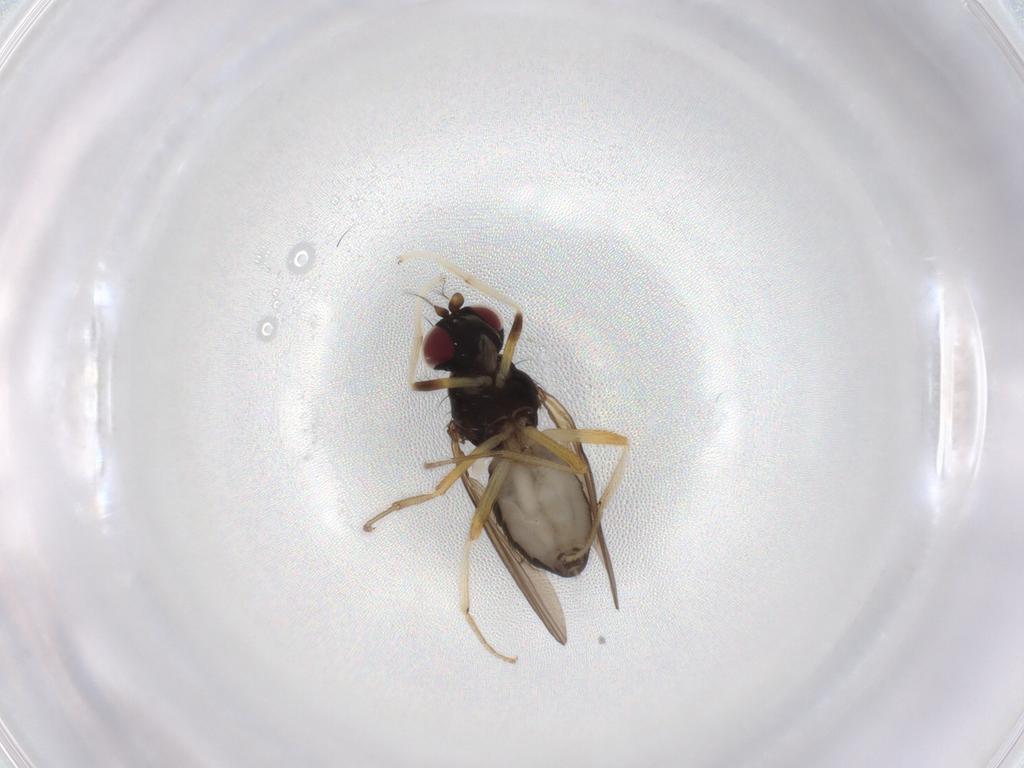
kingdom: Animalia
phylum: Arthropoda
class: Insecta
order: Diptera
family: Lauxaniidae
